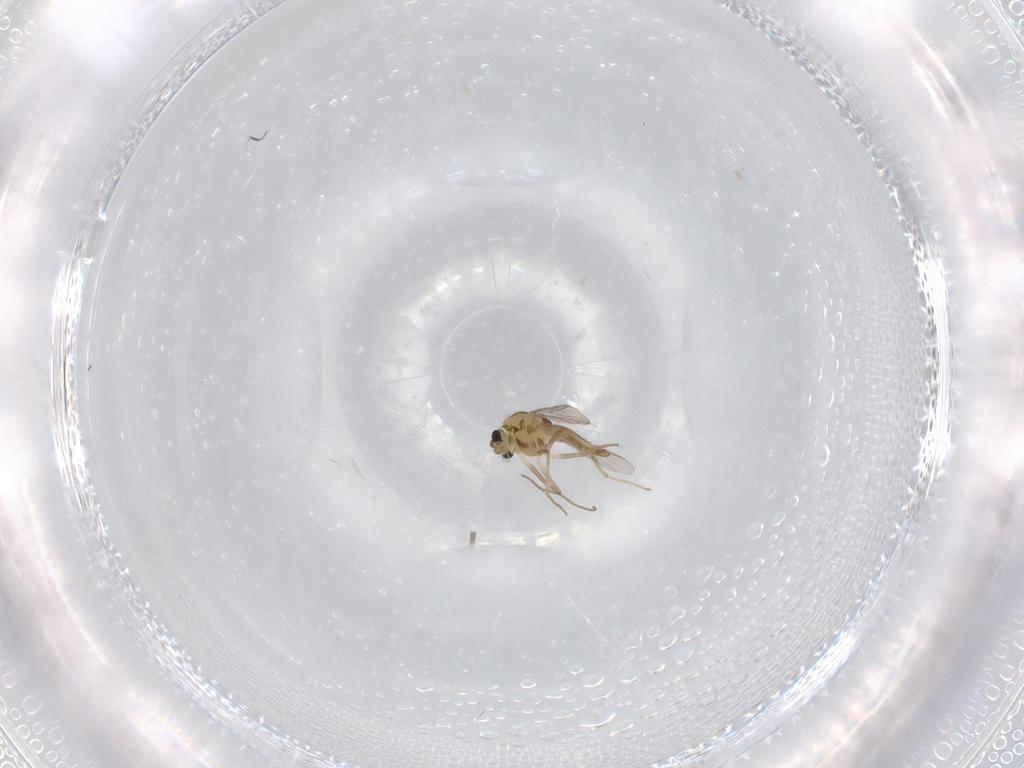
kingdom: Animalia
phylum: Arthropoda
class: Insecta
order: Diptera
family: Chironomidae
